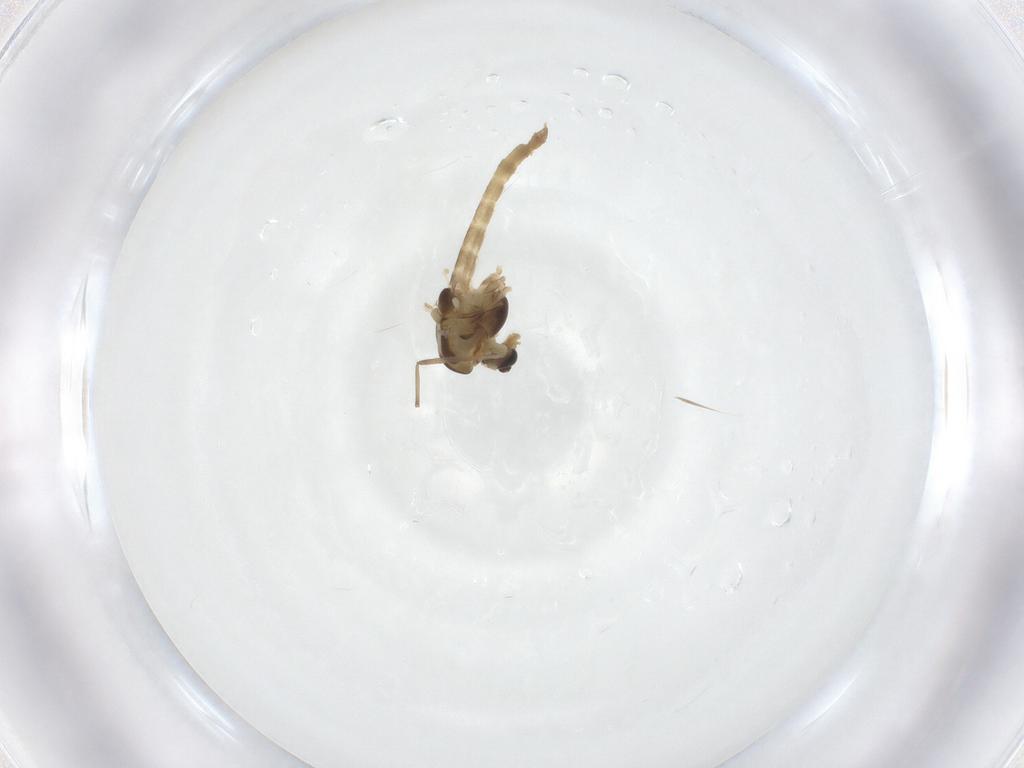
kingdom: Animalia
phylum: Arthropoda
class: Insecta
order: Diptera
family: Chironomidae
